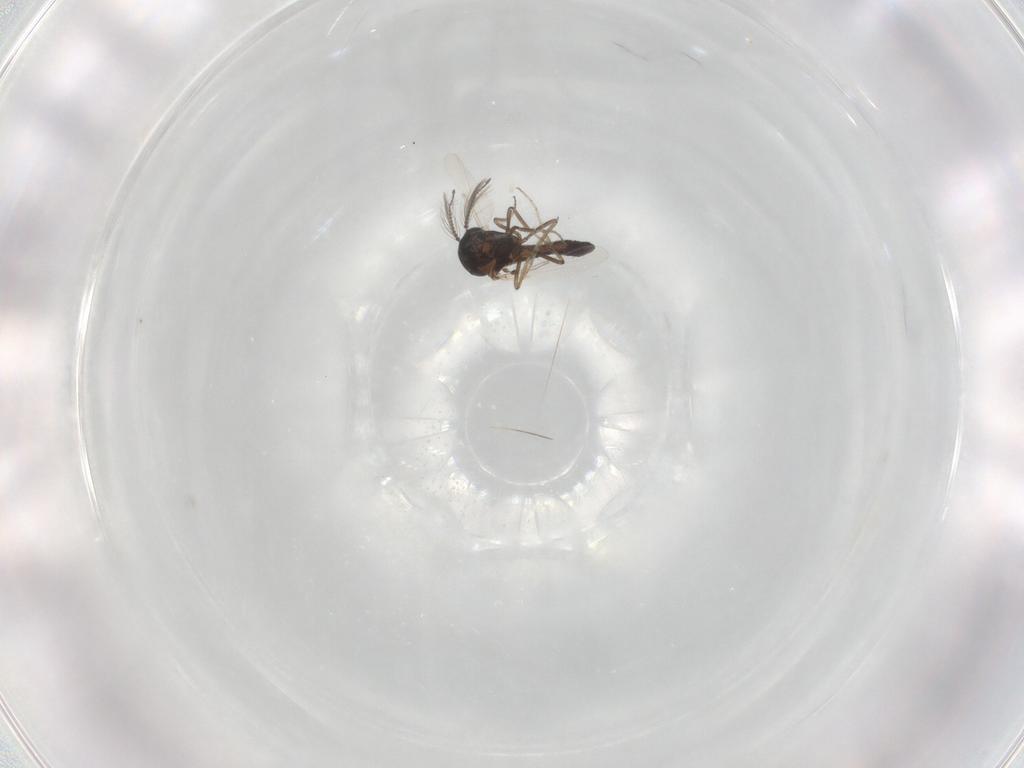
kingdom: Animalia
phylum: Arthropoda
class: Insecta
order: Diptera
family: Ceratopogonidae
